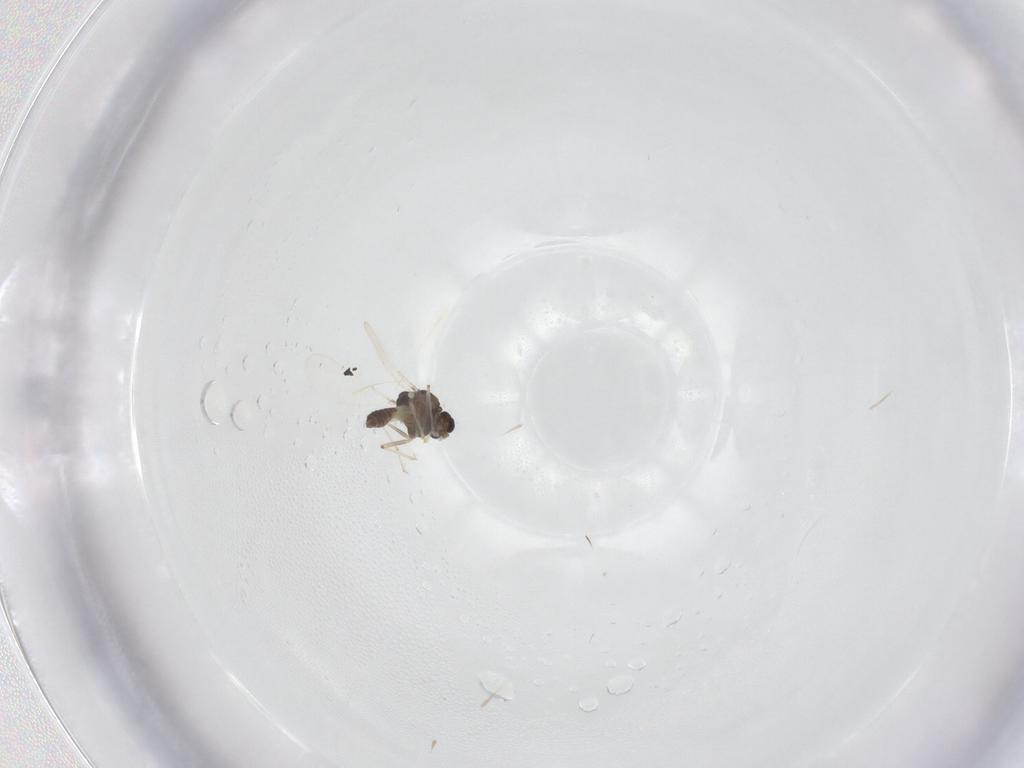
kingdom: Animalia
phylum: Arthropoda
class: Insecta
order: Diptera
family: Chironomidae
